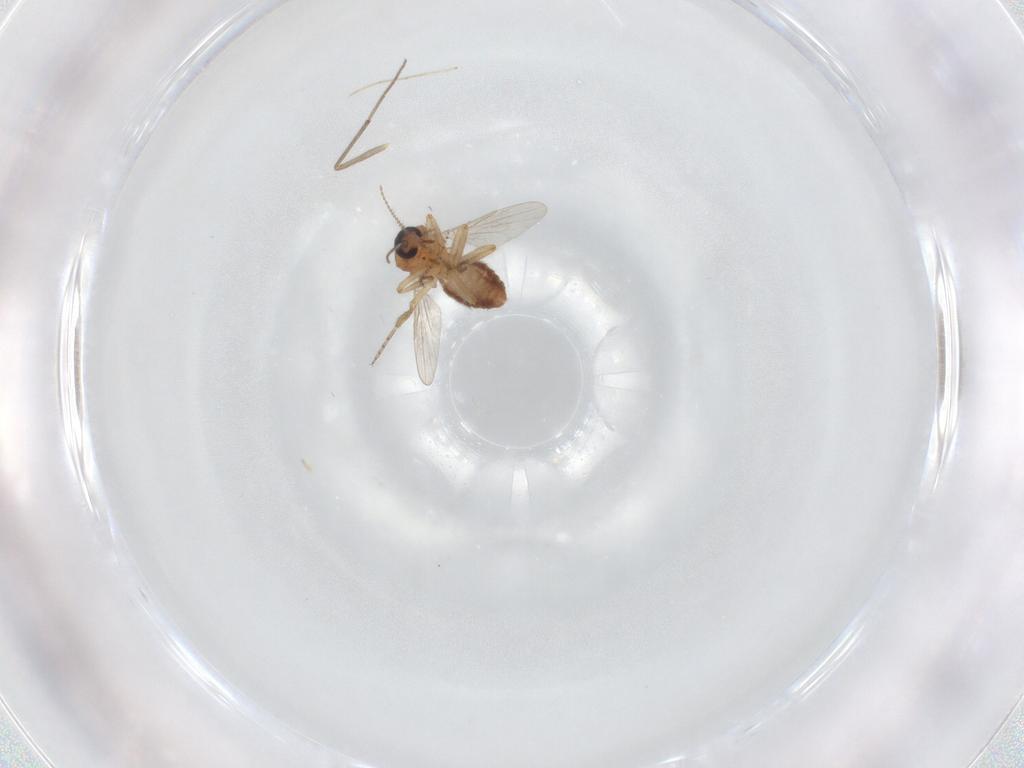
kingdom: Animalia
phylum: Arthropoda
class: Insecta
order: Diptera
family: Ceratopogonidae
